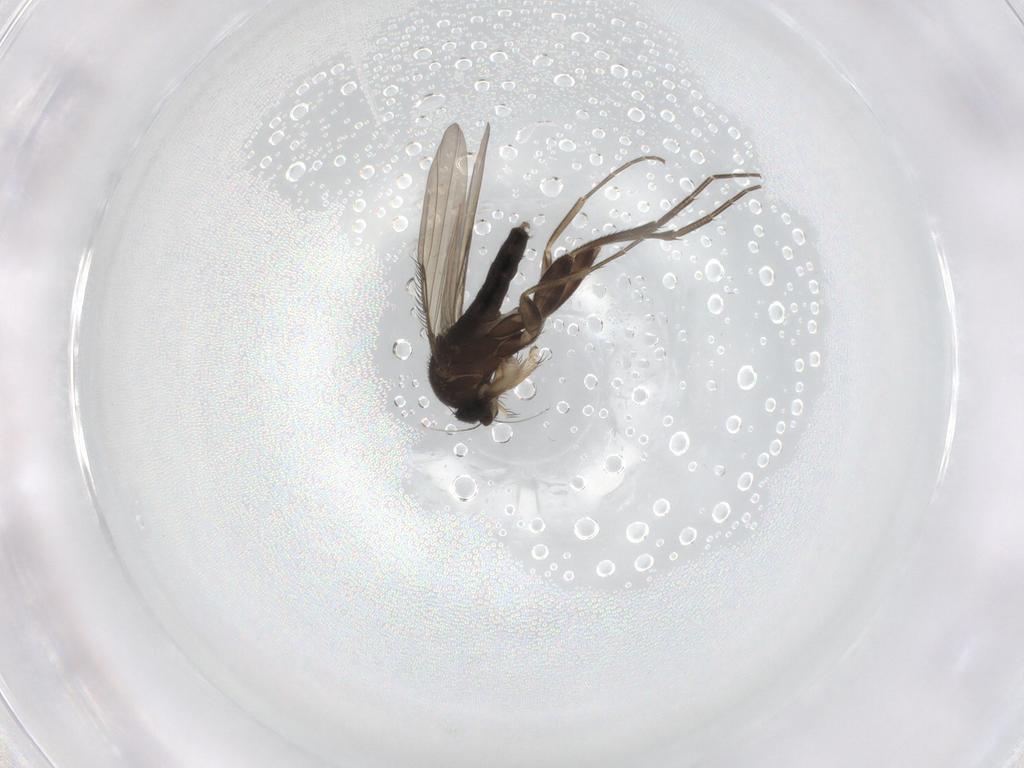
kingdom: Animalia
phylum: Arthropoda
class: Insecta
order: Diptera
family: Phoridae
